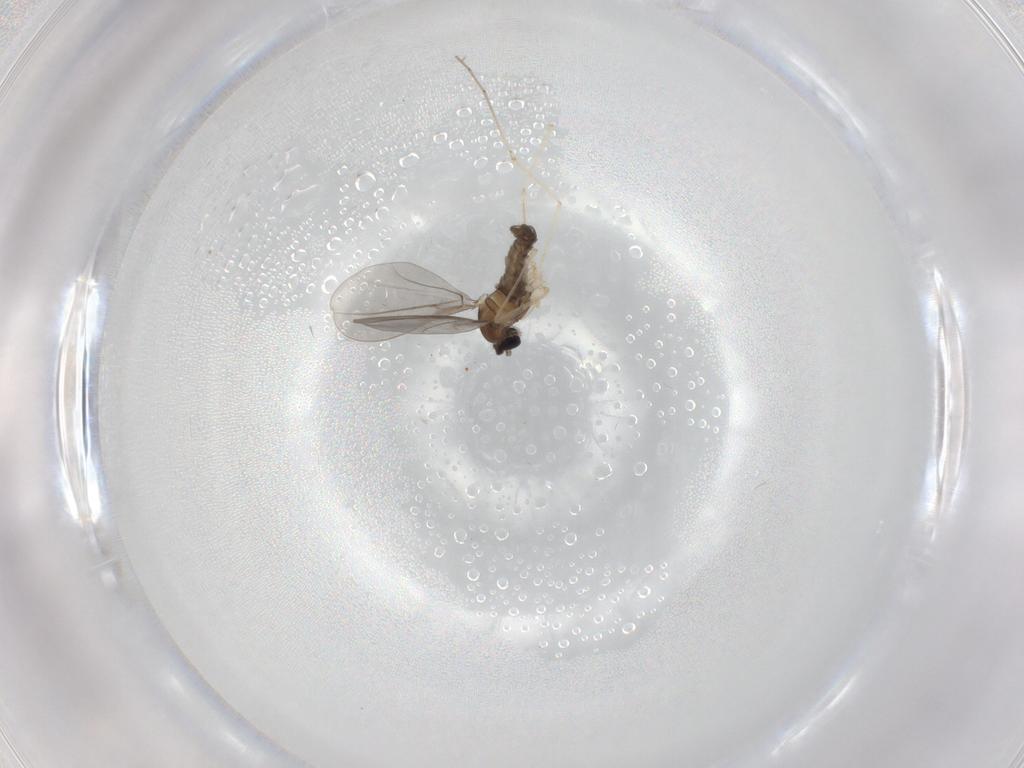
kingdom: Animalia
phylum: Arthropoda
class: Insecta
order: Diptera
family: Cecidomyiidae
